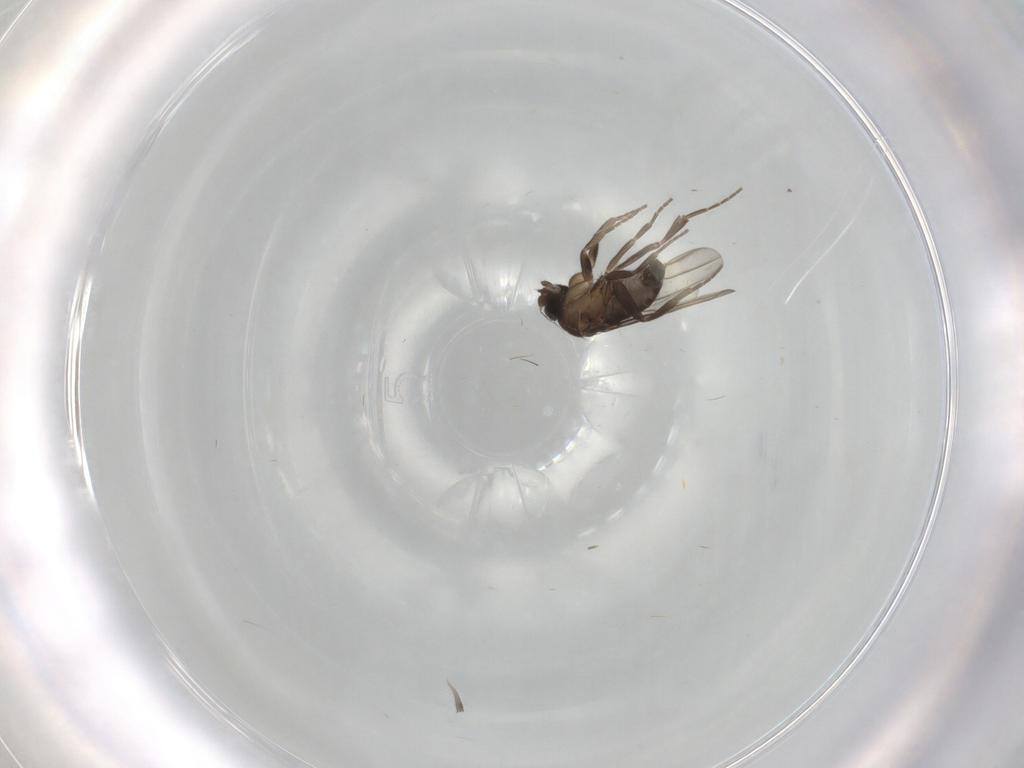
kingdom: Animalia
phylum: Arthropoda
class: Insecta
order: Diptera
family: Phoridae
